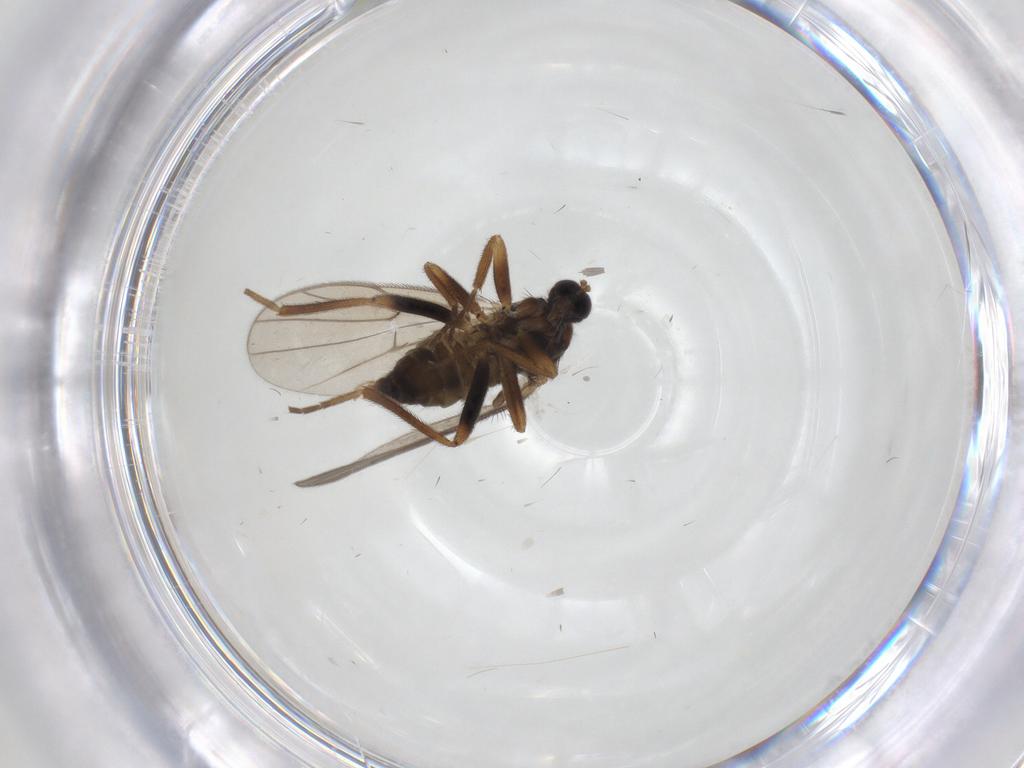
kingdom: Animalia
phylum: Arthropoda
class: Insecta
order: Diptera
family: Hybotidae
